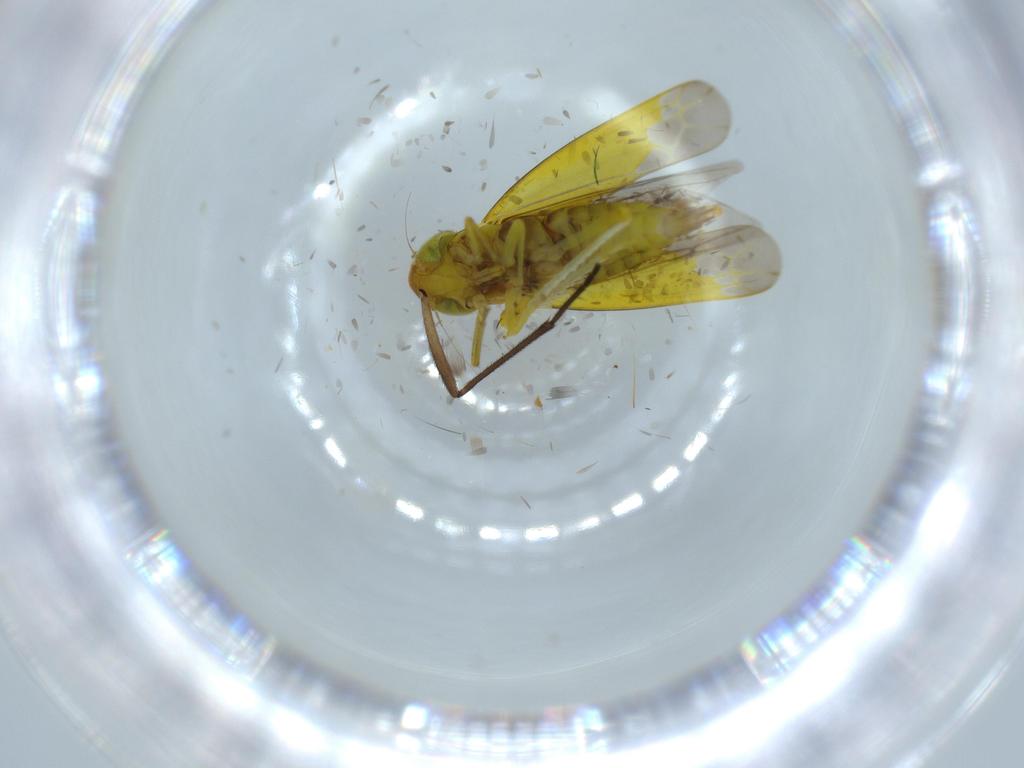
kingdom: Animalia
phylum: Arthropoda
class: Insecta
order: Hemiptera
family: Cicadellidae
